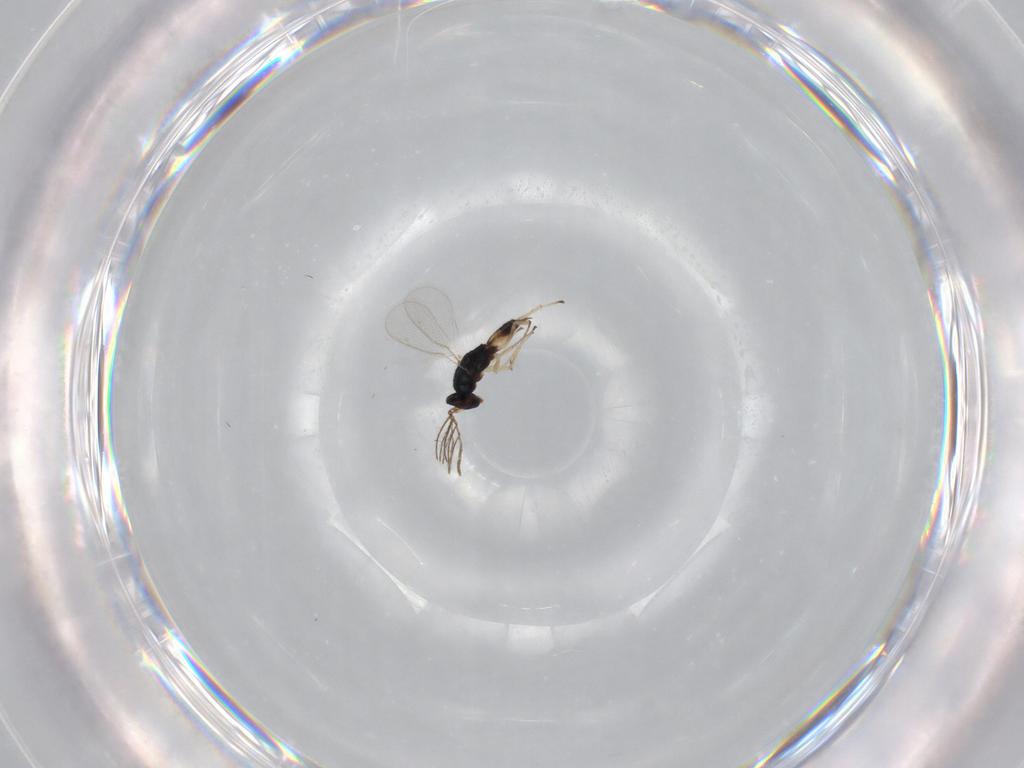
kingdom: Animalia
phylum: Arthropoda
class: Insecta
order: Hymenoptera
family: Eulophidae
